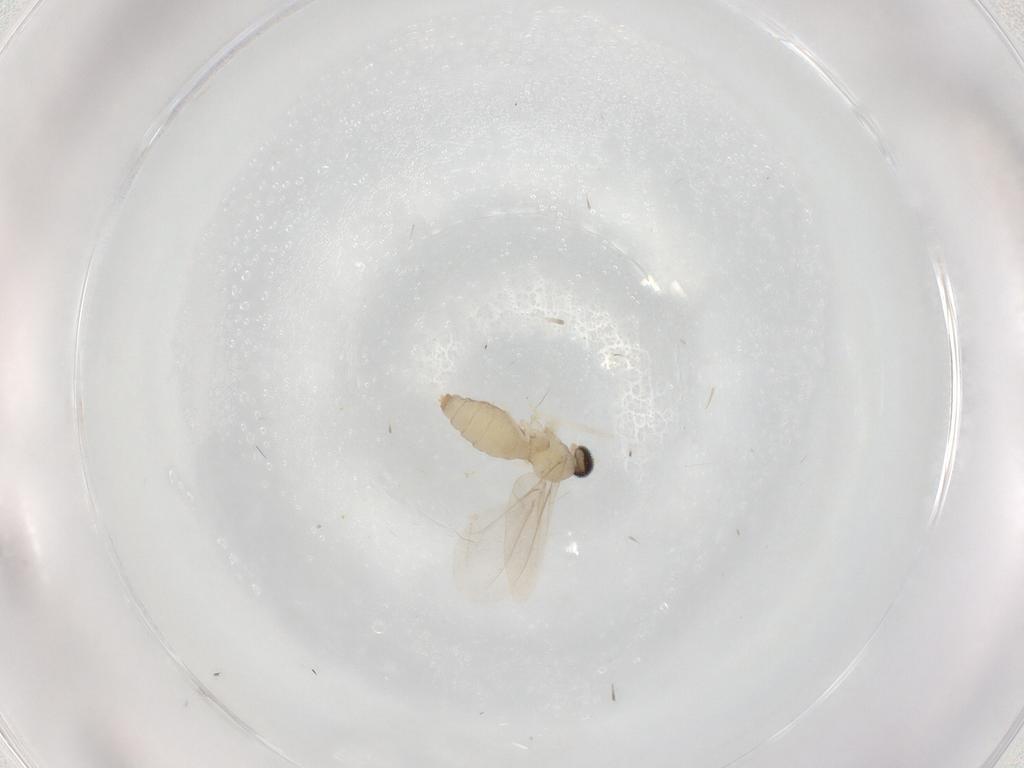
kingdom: Animalia
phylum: Arthropoda
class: Insecta
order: Diptera
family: Cecidomyiidae
